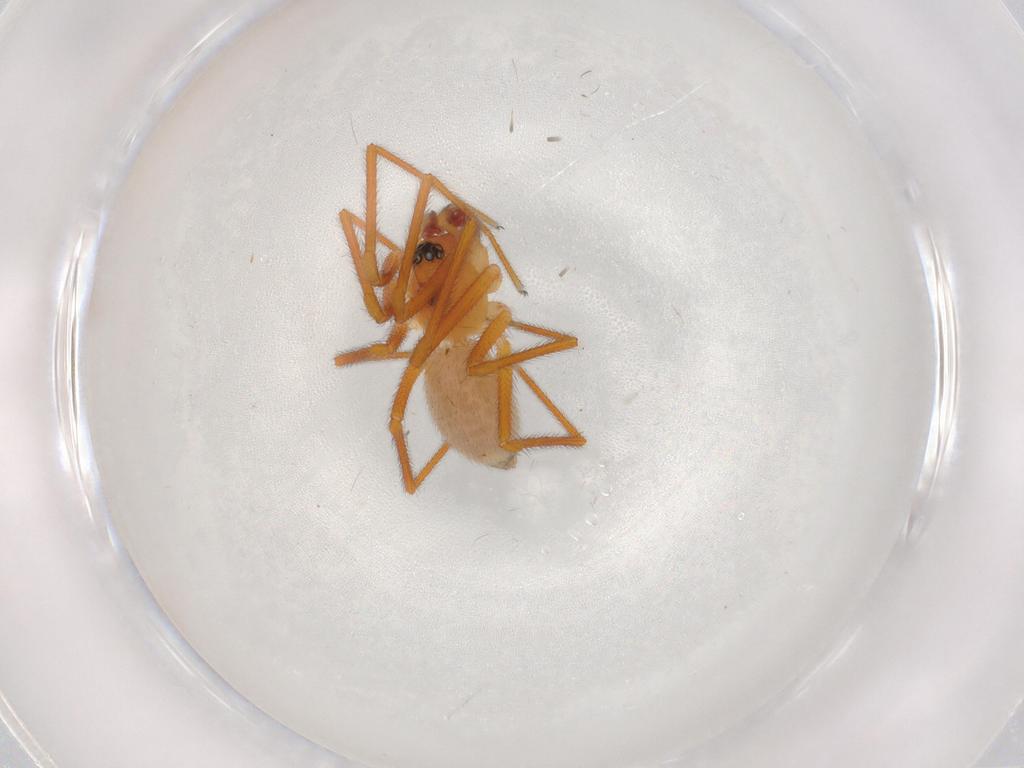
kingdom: Animalia
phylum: Arthropoda
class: Arachnida
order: Araneae
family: Linyphiidae
